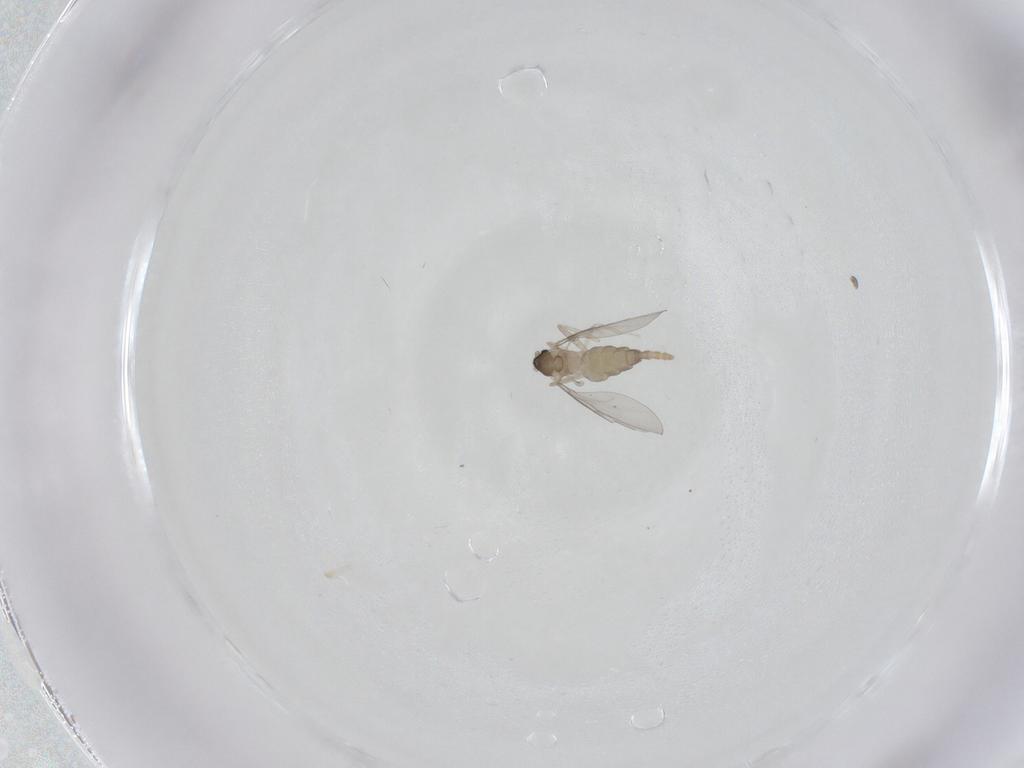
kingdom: Animalia
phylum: Arthropoda
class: Insecta
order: Diptera
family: Cecidomyiidae
